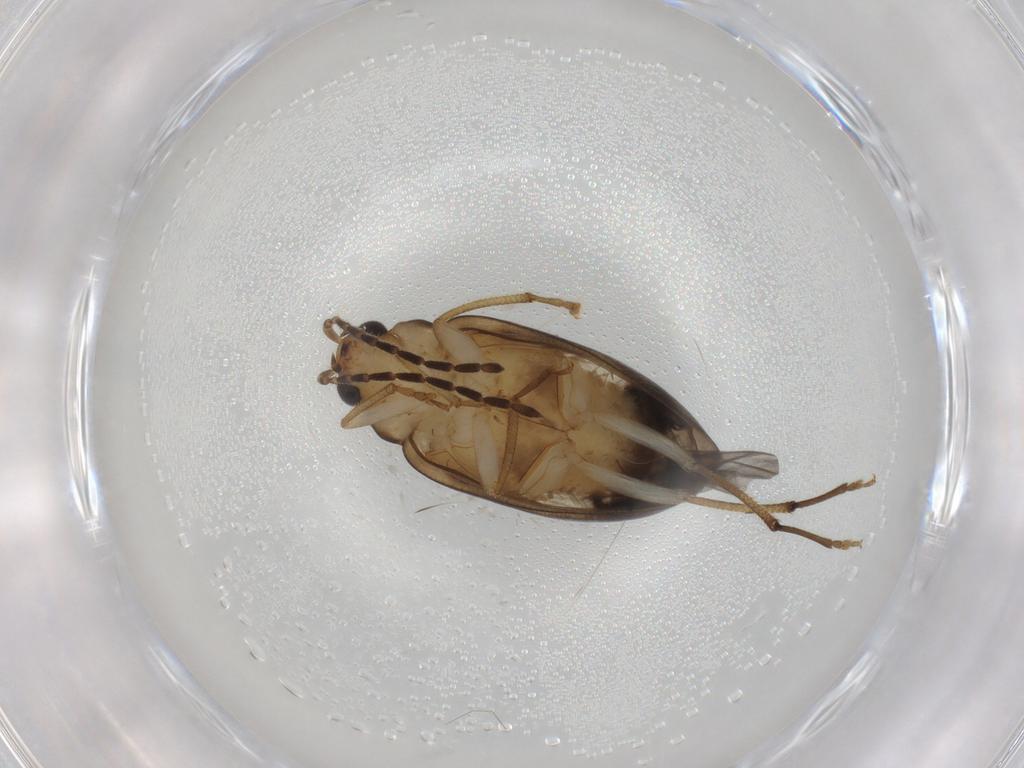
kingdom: Animalia
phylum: Arthropoda
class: Insecta
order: Coleoptera
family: Chrysomelidae
